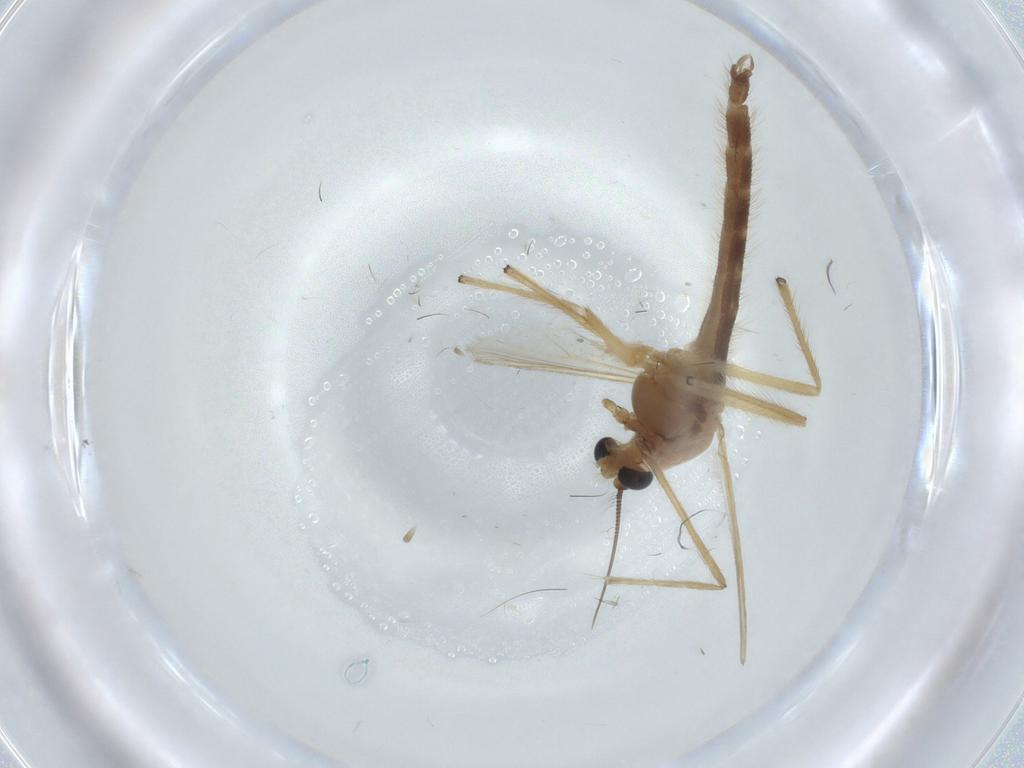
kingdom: Animalia
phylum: Arthropoda
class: Insecta
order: Diptera
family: Chironomidae
